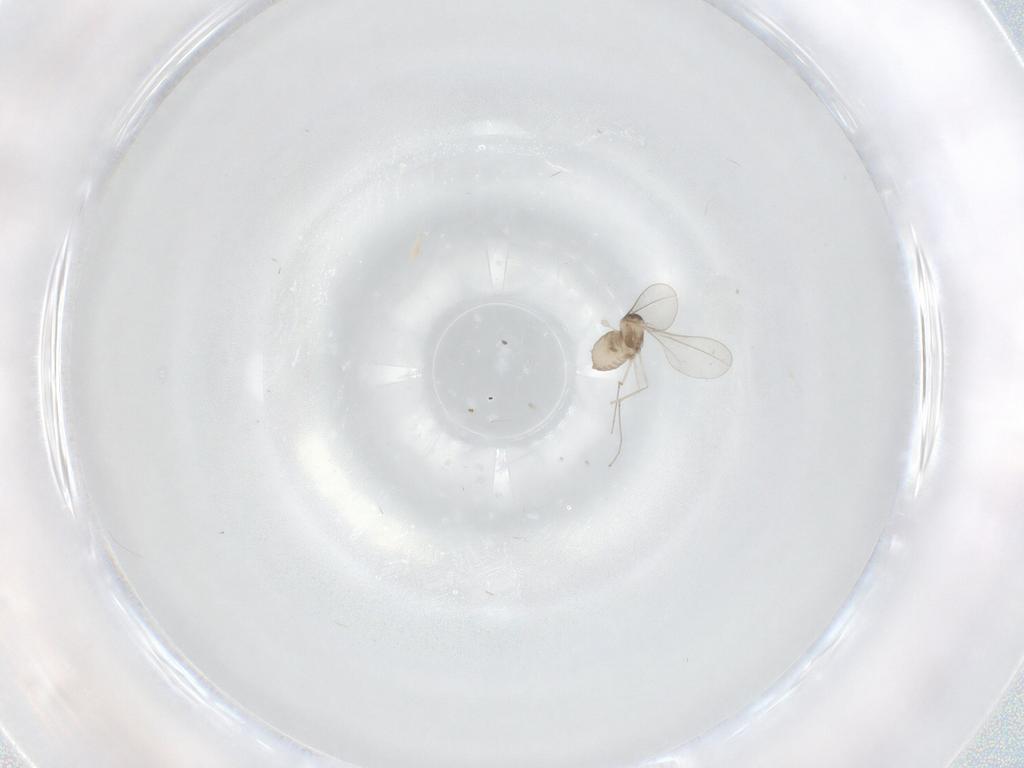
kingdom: Animalia
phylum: Arthropoda
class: Insecta
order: Diptera
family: Cecidomyiidae
